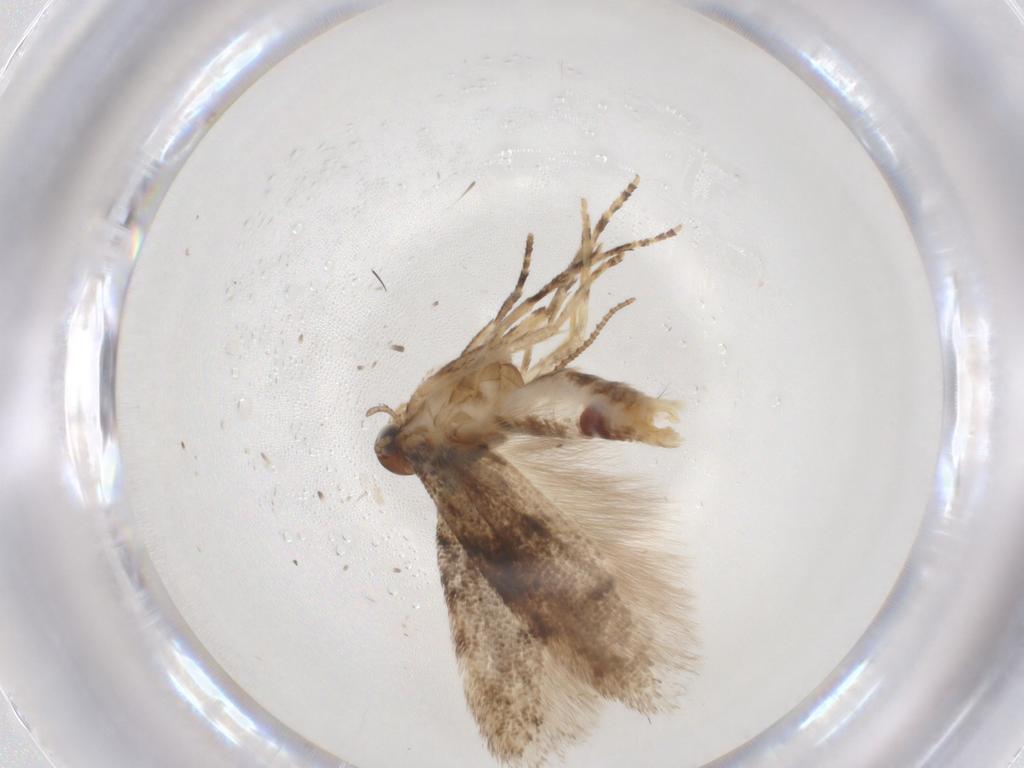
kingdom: Animalia
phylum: Arthropoda
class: Insecta
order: Lepidoptera
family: Gelechiidae
